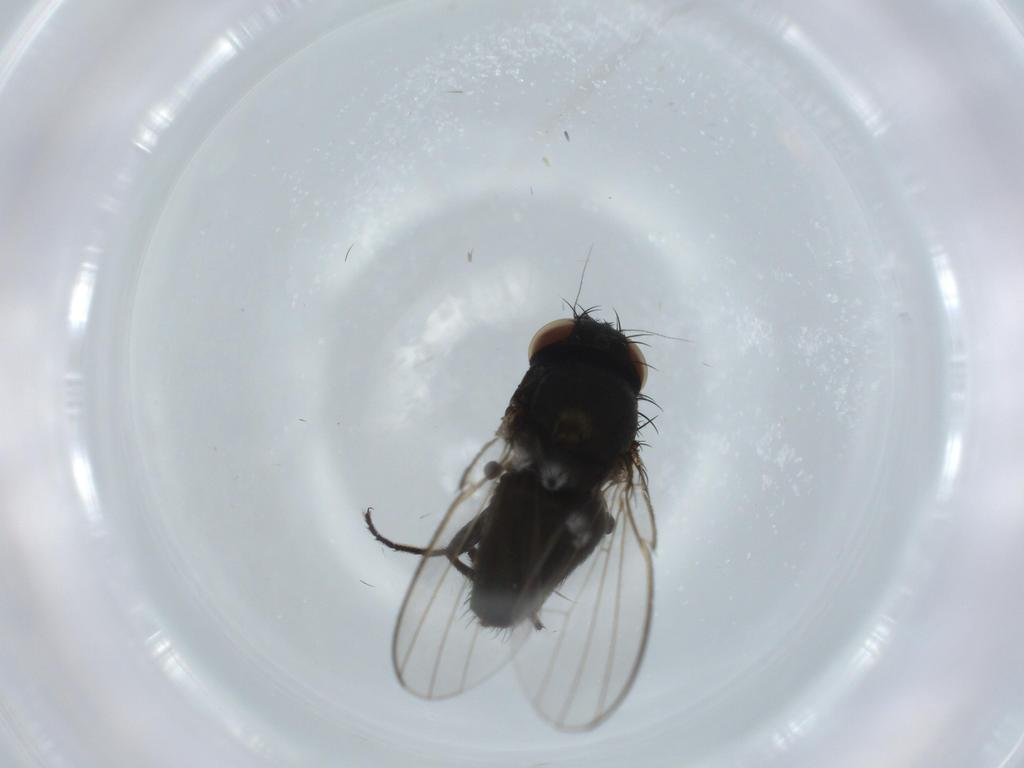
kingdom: Animalia
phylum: Arthropoda
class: Insecta
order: Diptera
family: Milichiidae
